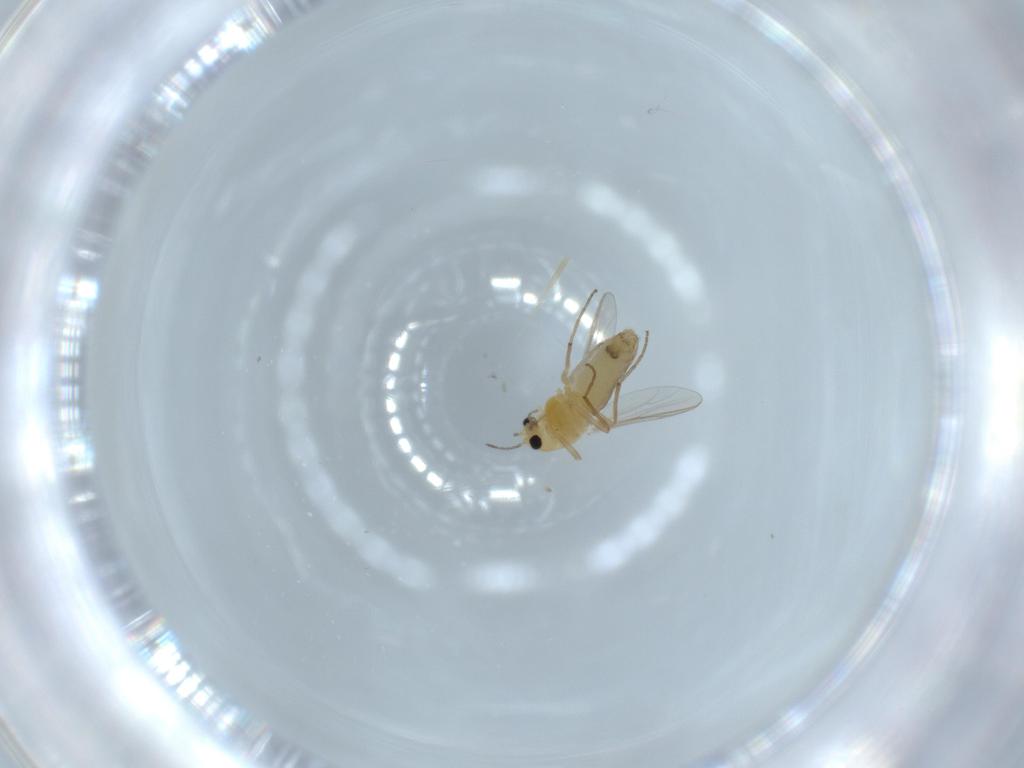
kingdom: Animalia
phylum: Arthropoda
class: Insecta
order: Diptera
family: Chironomidae
